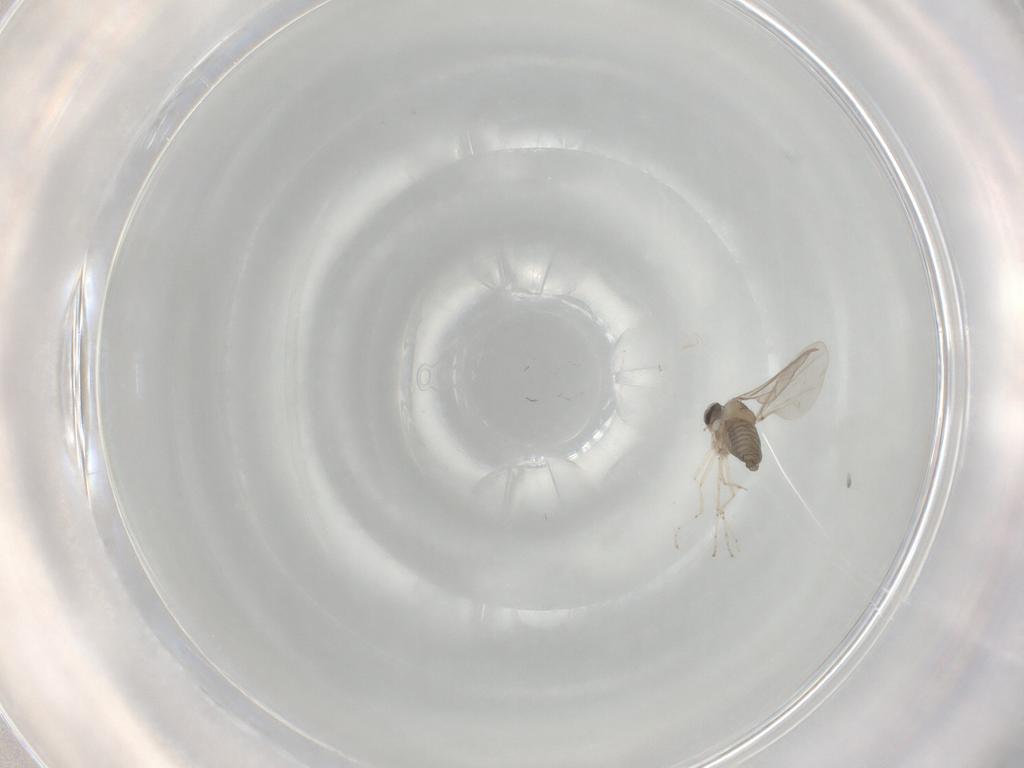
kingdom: Animalia
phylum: Arthropoda
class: Insecta
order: Diptera
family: Cecidomyiidae
